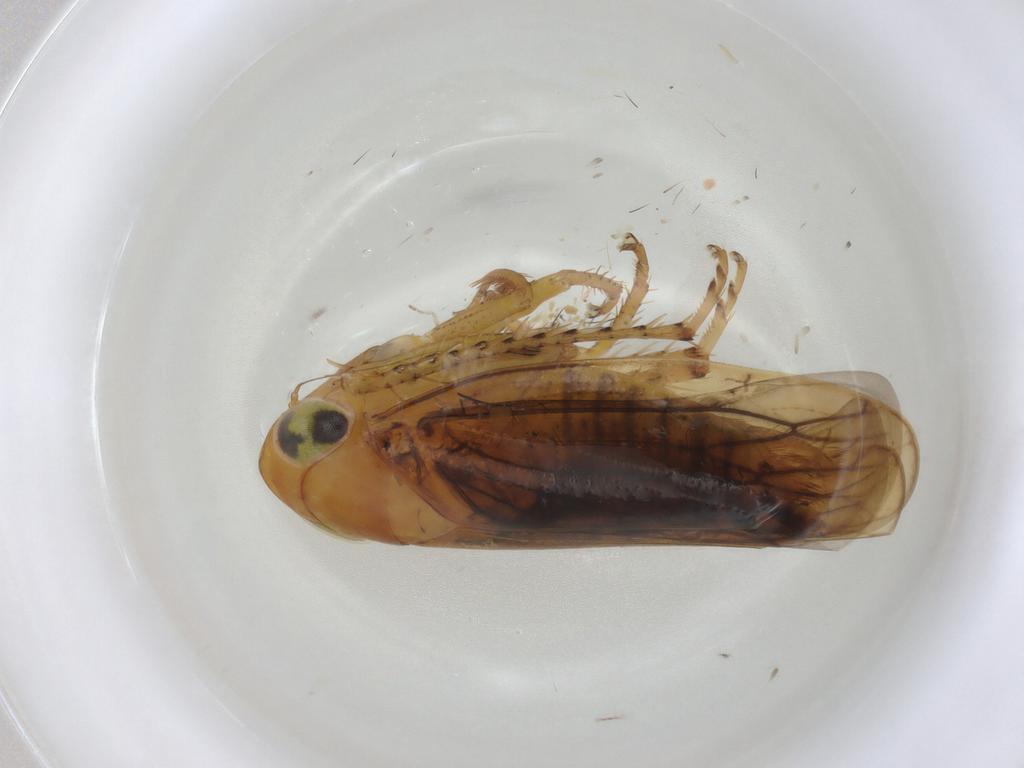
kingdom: Animalia
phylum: Arthropoda
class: Insecta
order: Hemiptera
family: Cicadellidae
